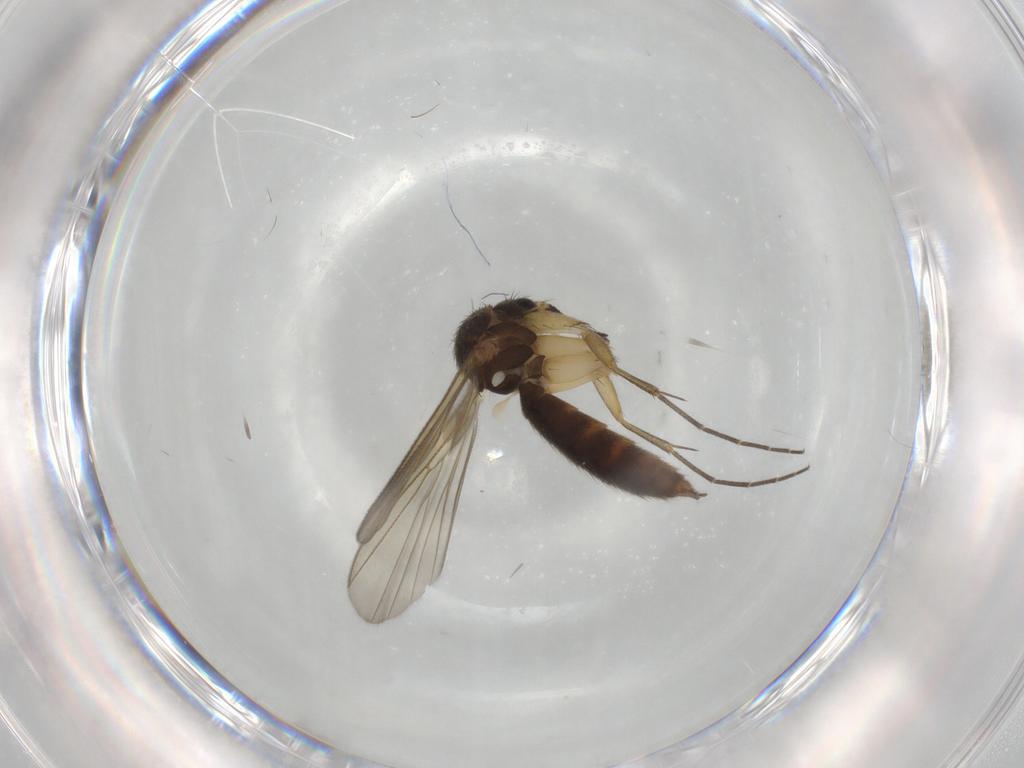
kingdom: Animalia
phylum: Arthropoda
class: Insecta
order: Diptera
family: Mycetophilidae
